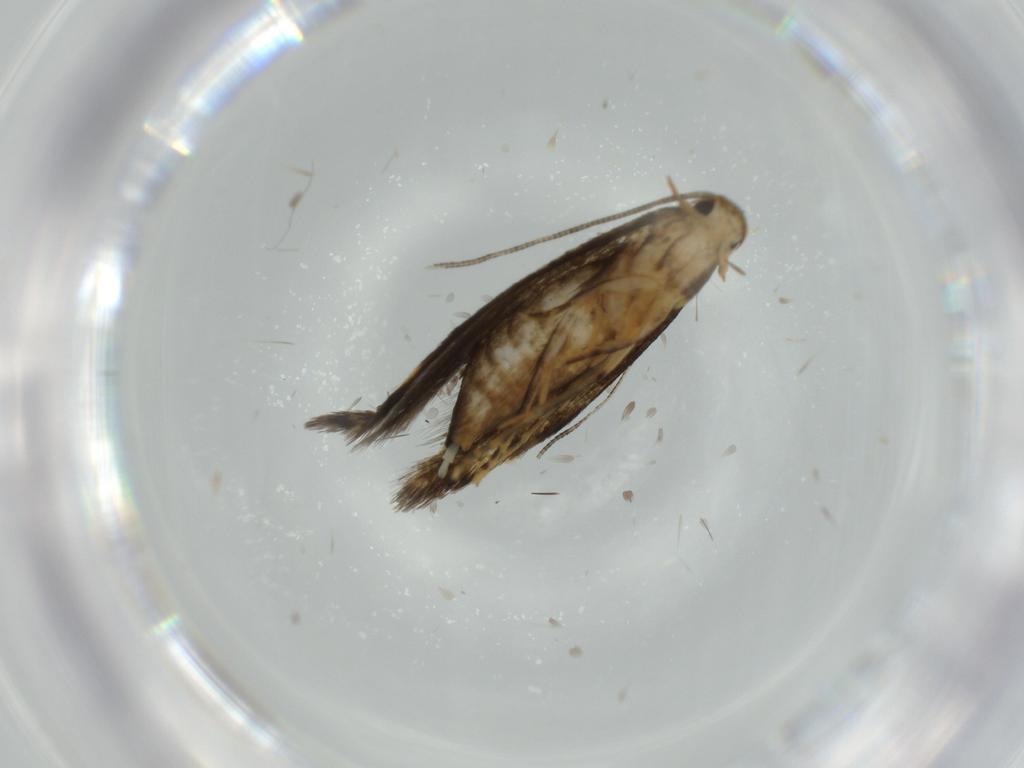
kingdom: Animalia
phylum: Arthropoda
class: Insecta
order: Lepidoptera
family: Tineidae
